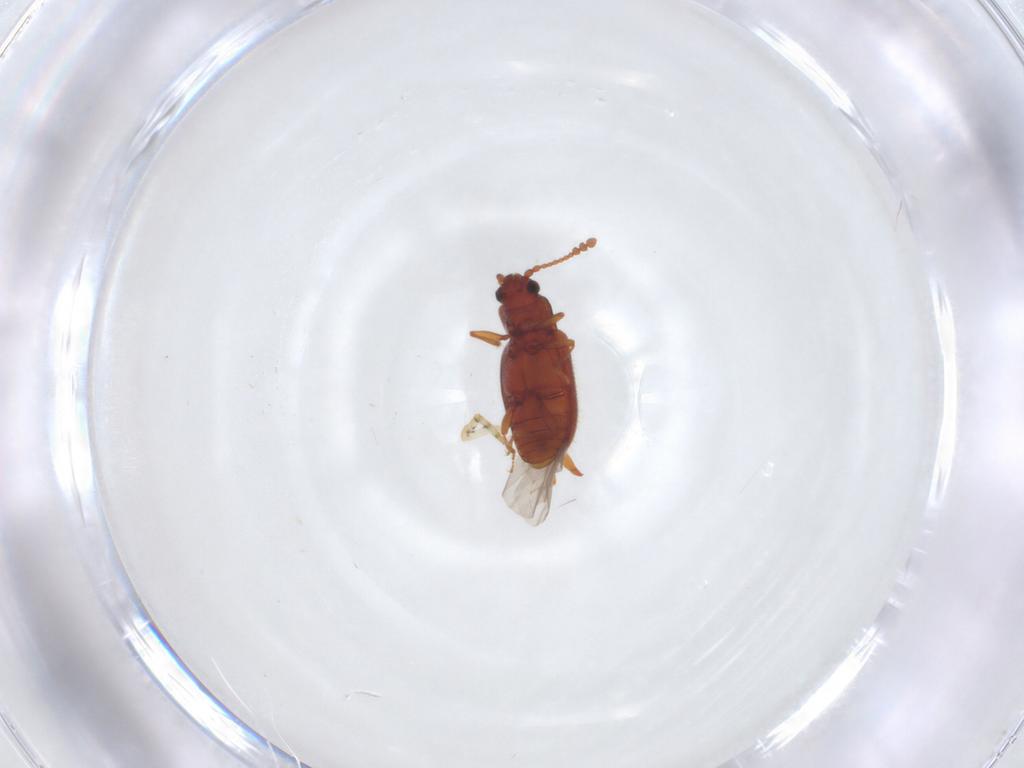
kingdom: Animalia
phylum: Arthropoda
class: Insecta
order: Coleoptera
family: Cryptophagidae
